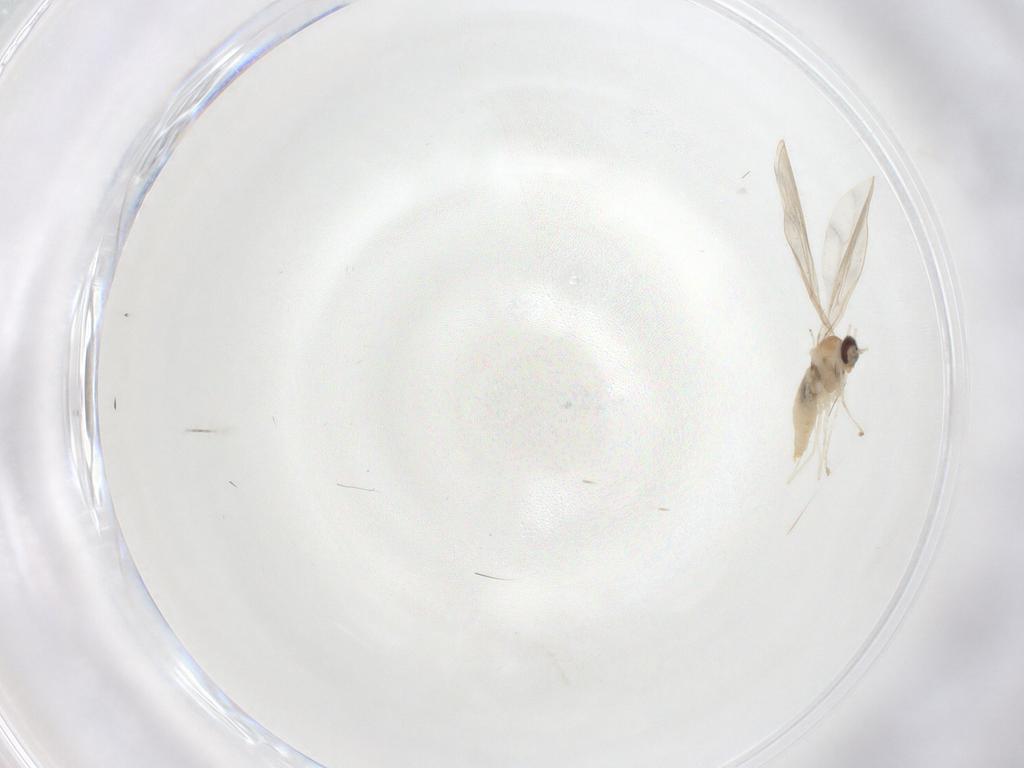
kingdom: Animalia
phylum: Arthropoda
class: Insecta
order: Diptera
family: Cecidomyiidae
